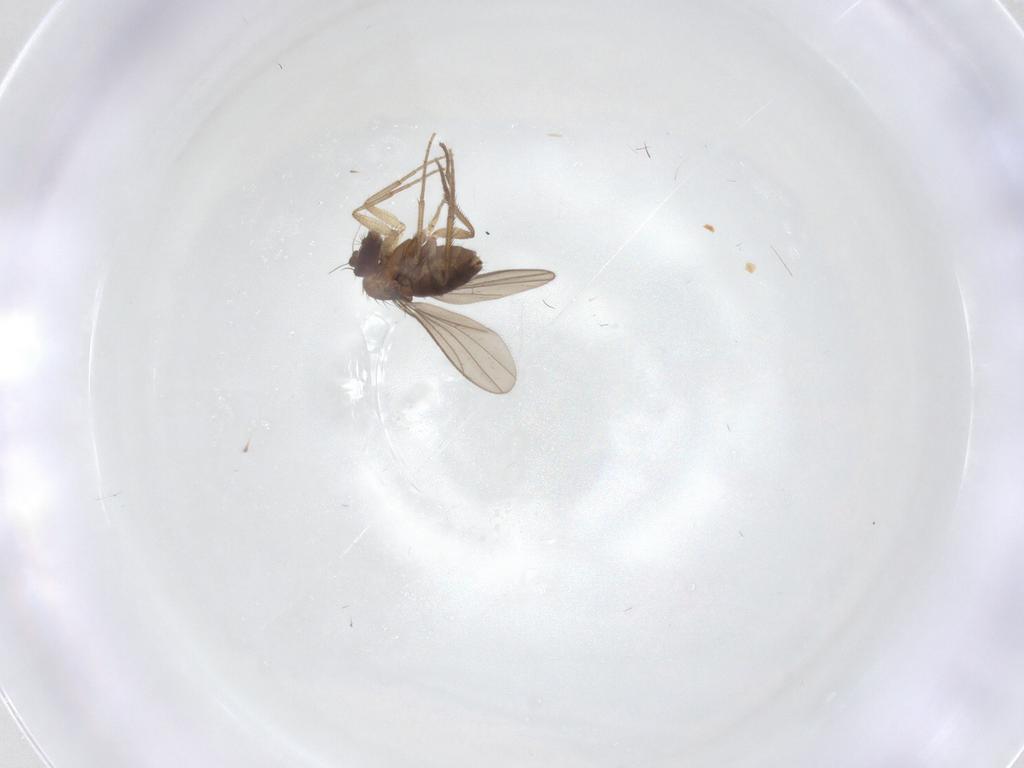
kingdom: Animalia
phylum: Arthropoda
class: Insecta
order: Diptera
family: Dolichopodidae
